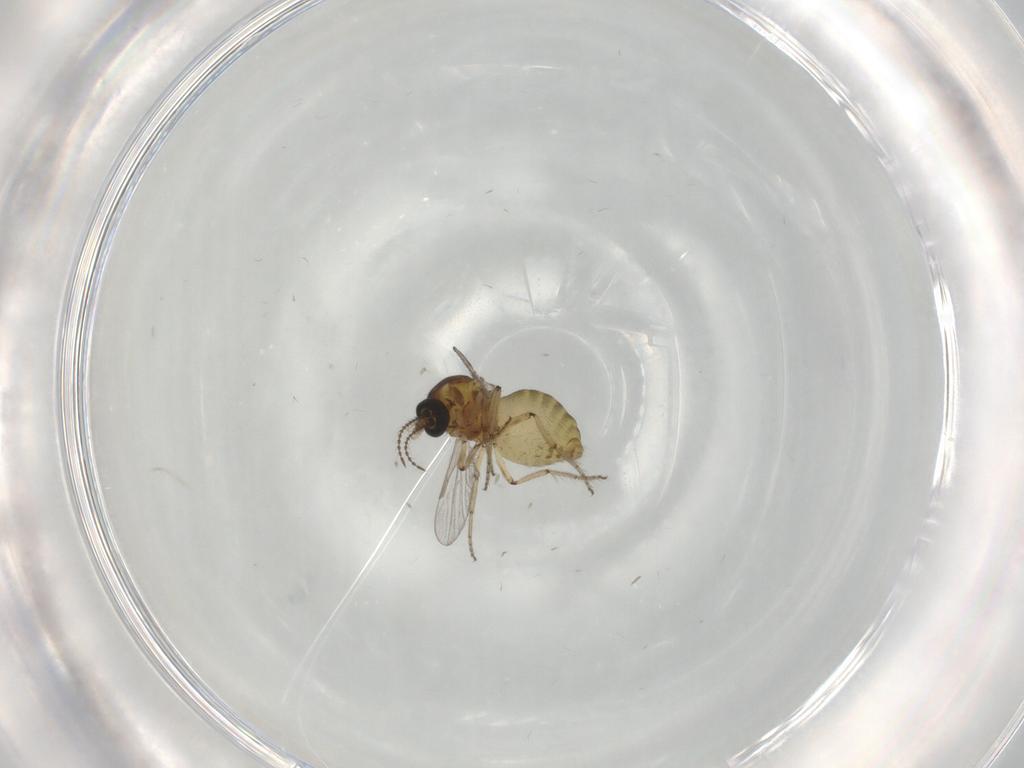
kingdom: Animalia
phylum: Arthropoda
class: Insecta
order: Diptera
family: Ceratopogonidae
